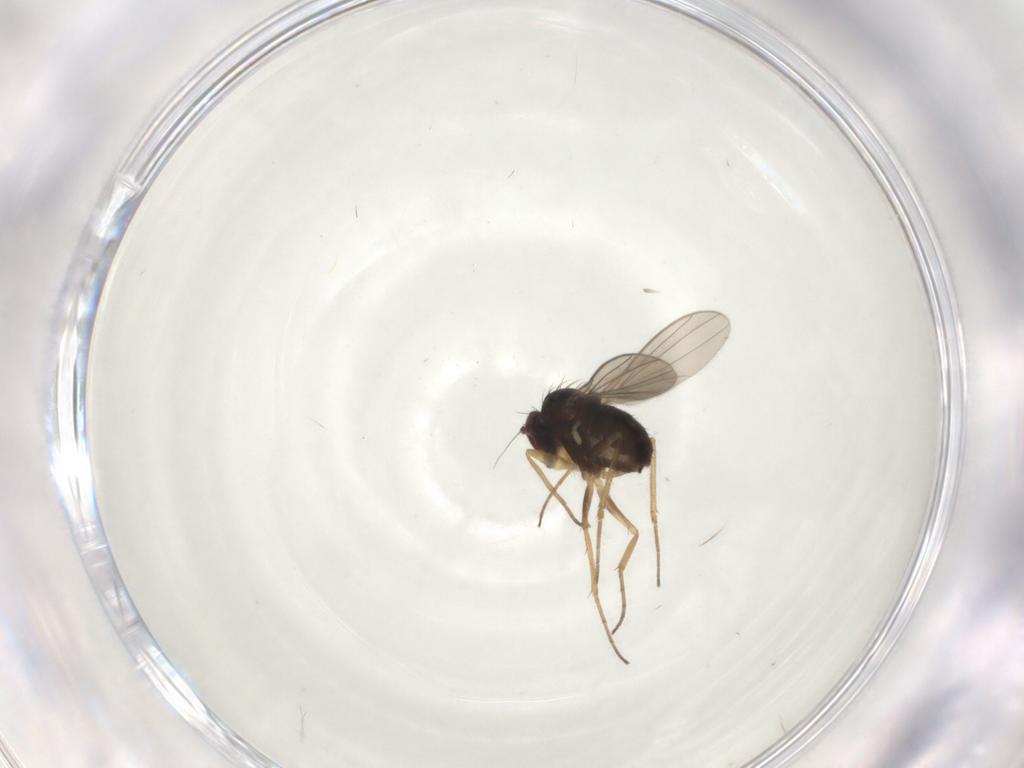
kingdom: Animalia
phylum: Arthropoda
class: Insecta
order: Diptera
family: Dolichopodidae
